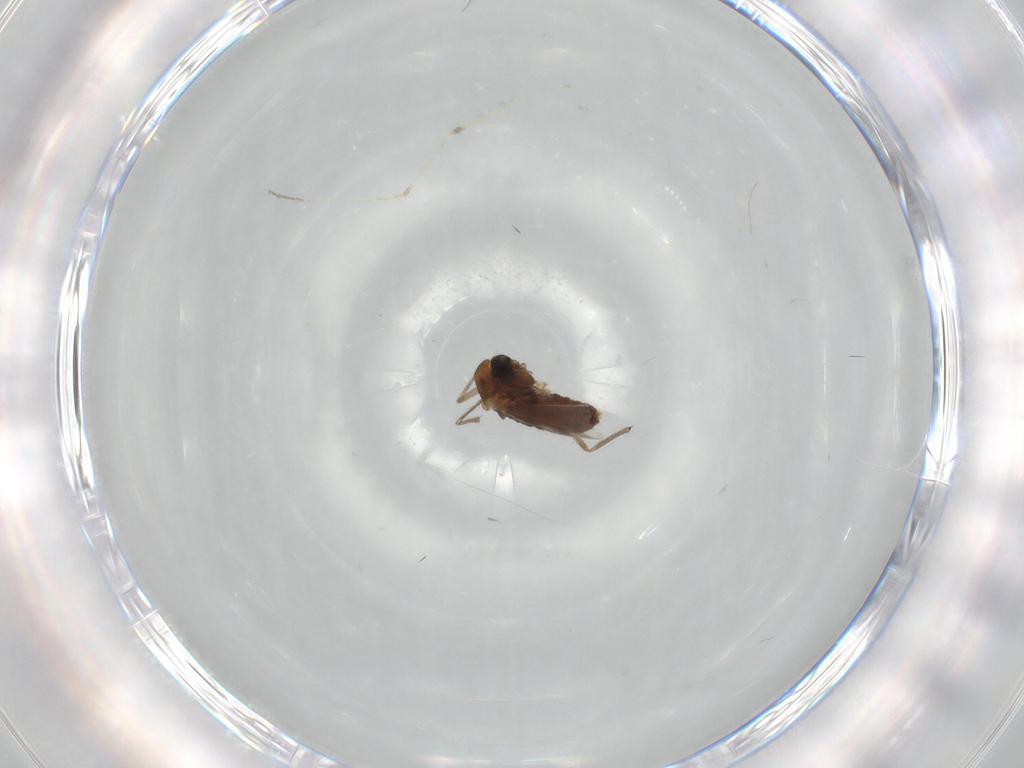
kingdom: Animalia
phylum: Arthropoda
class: Insecta
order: Diptera
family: Chironomidae
